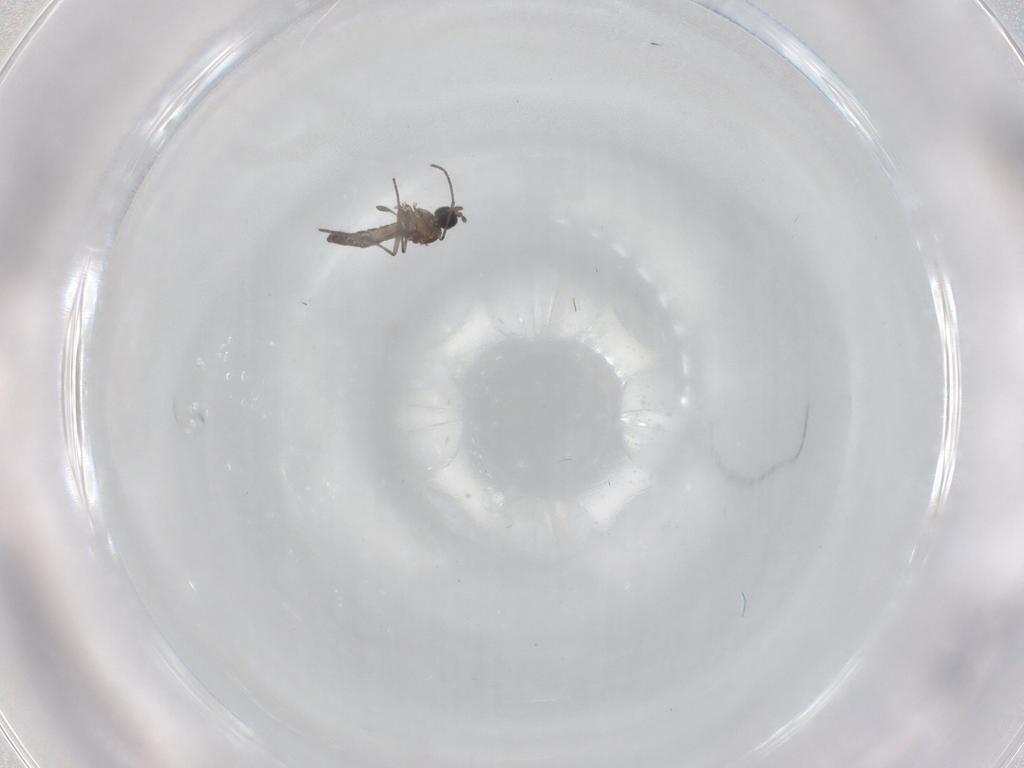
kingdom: Animalia
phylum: Arthropoda
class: Insecta
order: Diptera
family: Sciaridae
